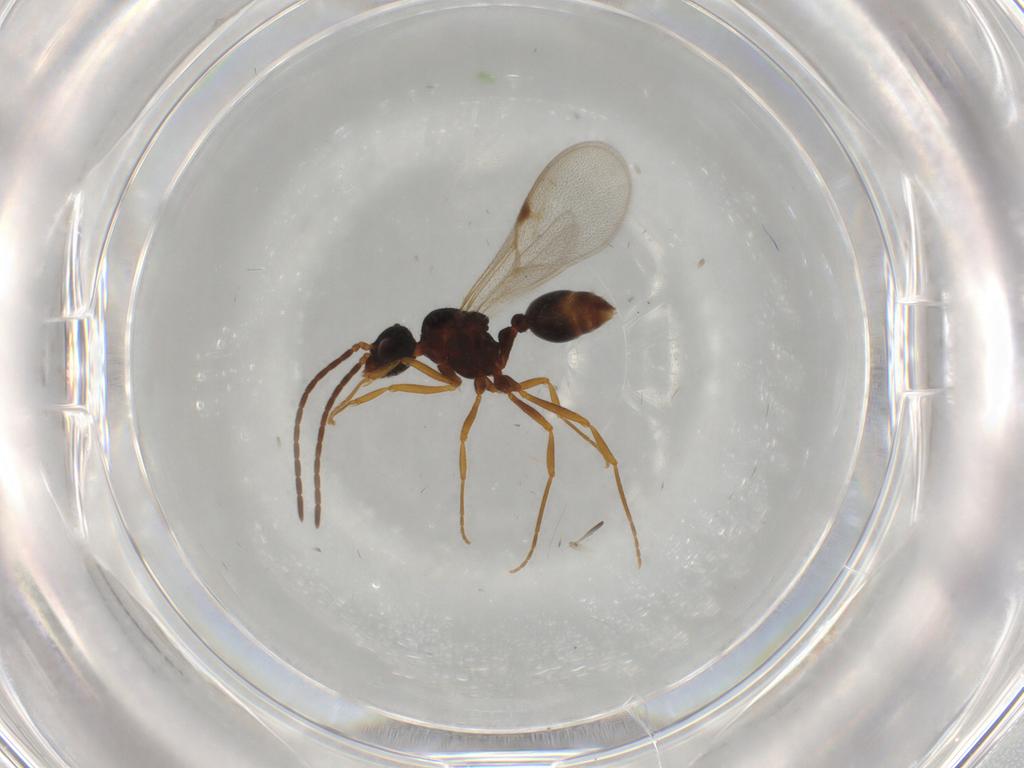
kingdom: Animalia
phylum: Arthropoda
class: Insecta
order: Hymenoptera
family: Formicidae
